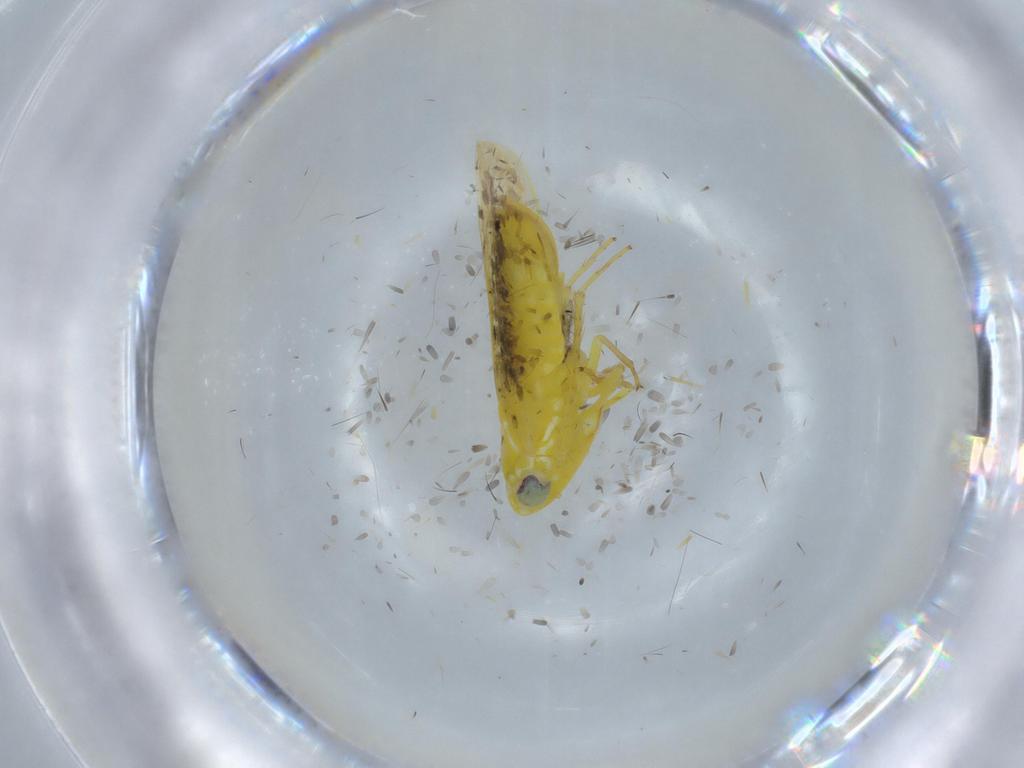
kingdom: Animalia
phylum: Arthropoda
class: Insecta
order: Hemiptera
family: Cicadellidae
